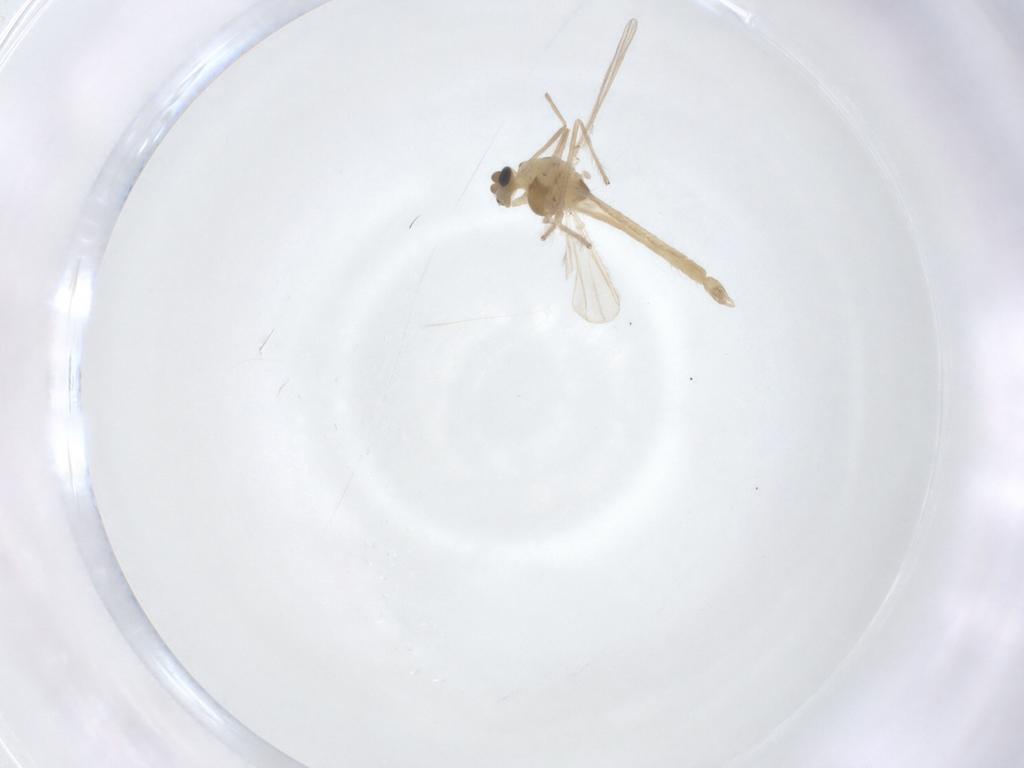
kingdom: Animalia
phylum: Arthropoda
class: Insecta
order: Diptera
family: Chironomidae
